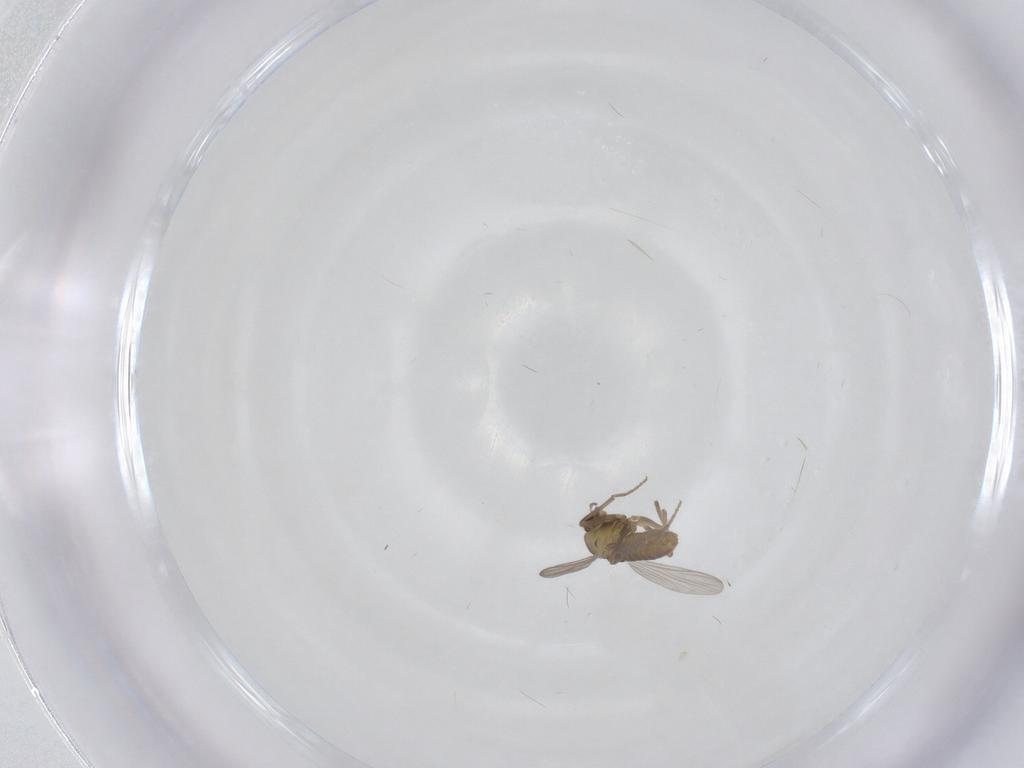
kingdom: Animalia
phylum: Arthropoda
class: Insecta
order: Diptera
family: Chironomidae
